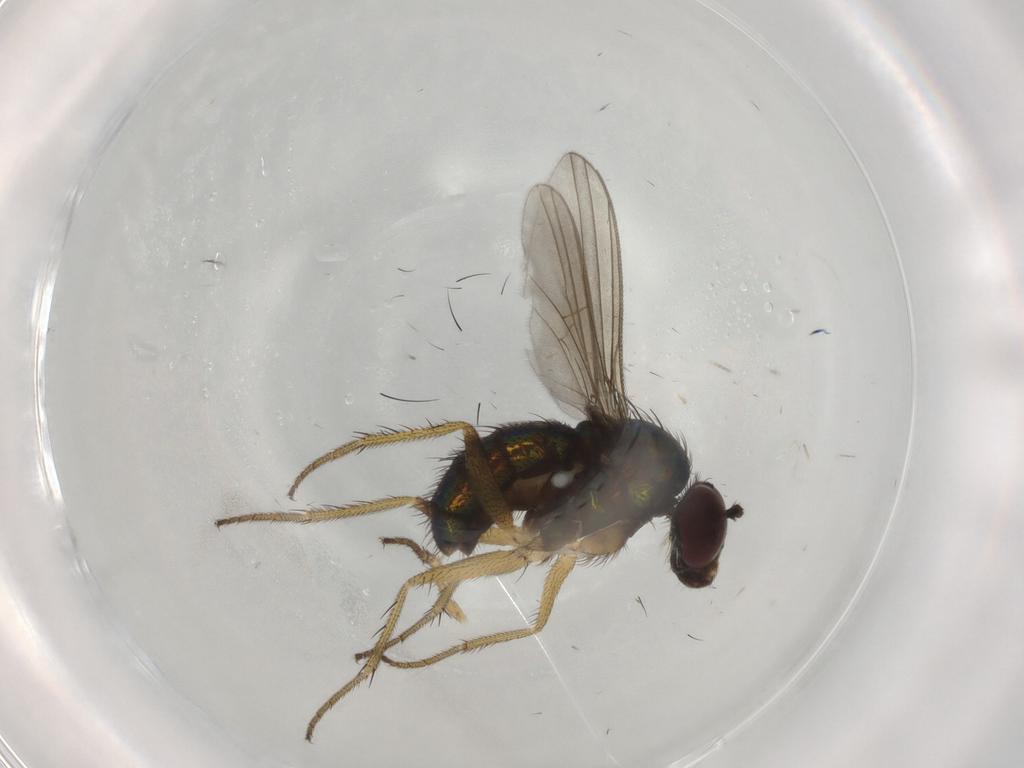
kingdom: Animalia
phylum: Arthropoda
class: Insecta
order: Diptera
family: Dolichopodidae
